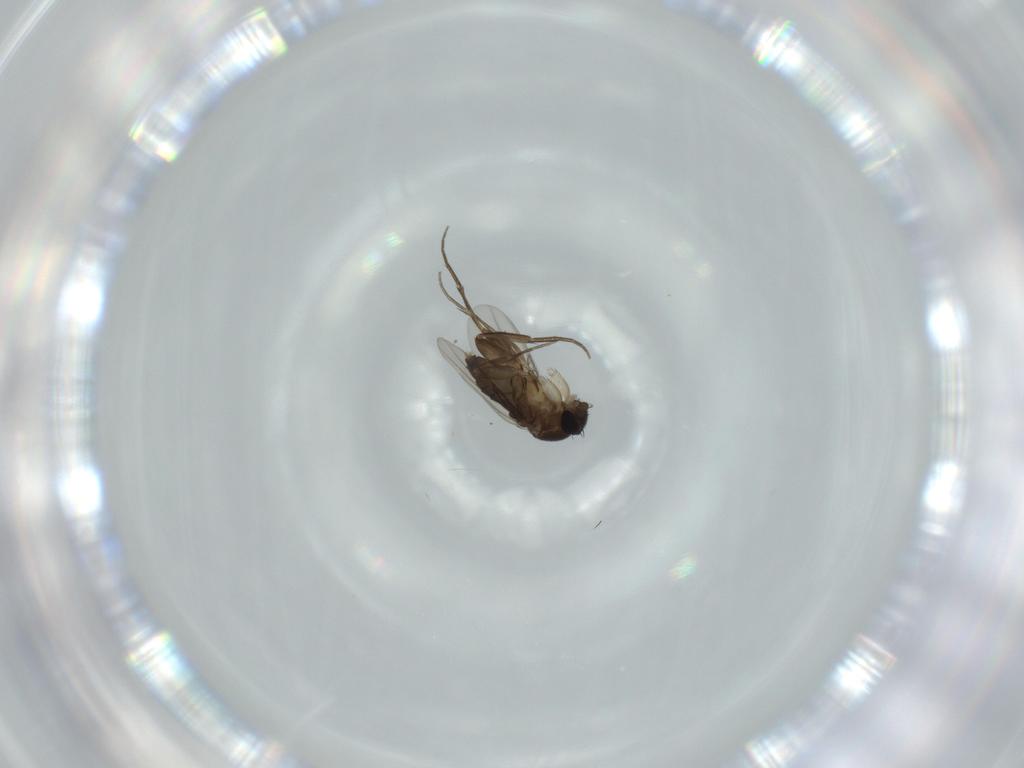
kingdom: Animalia
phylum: Arthropoda
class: Insecta
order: Diptera
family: Phoridae
